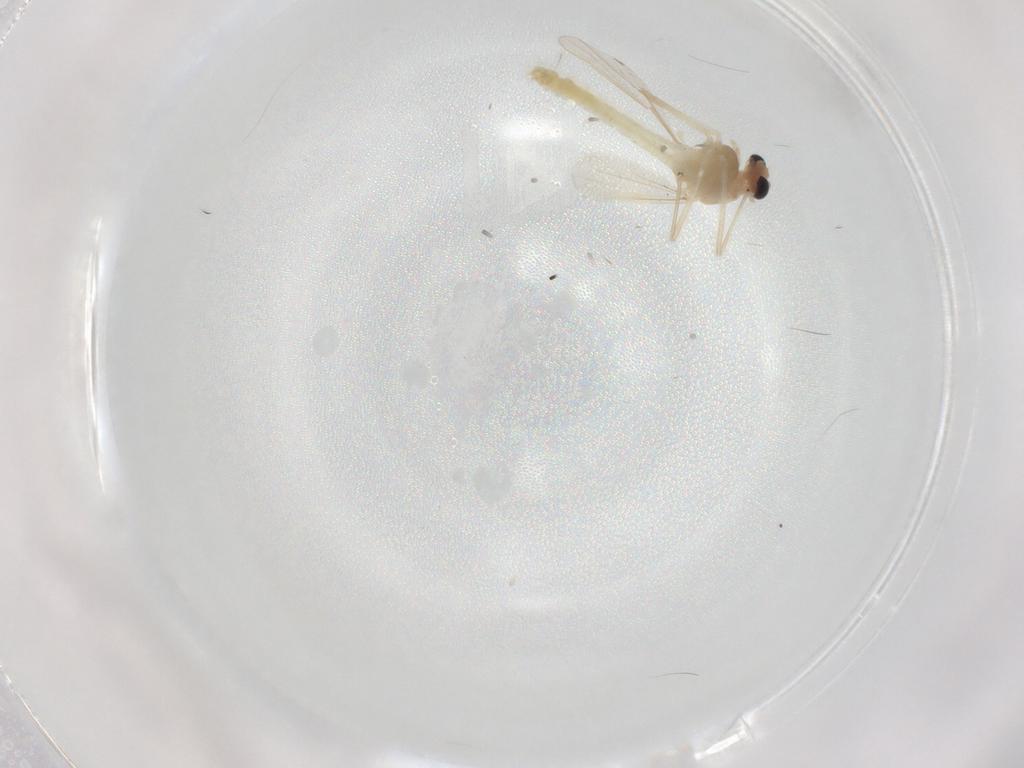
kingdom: Animalia
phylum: Arthropoda
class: Insecta
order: Diptera
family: Chironomidae
